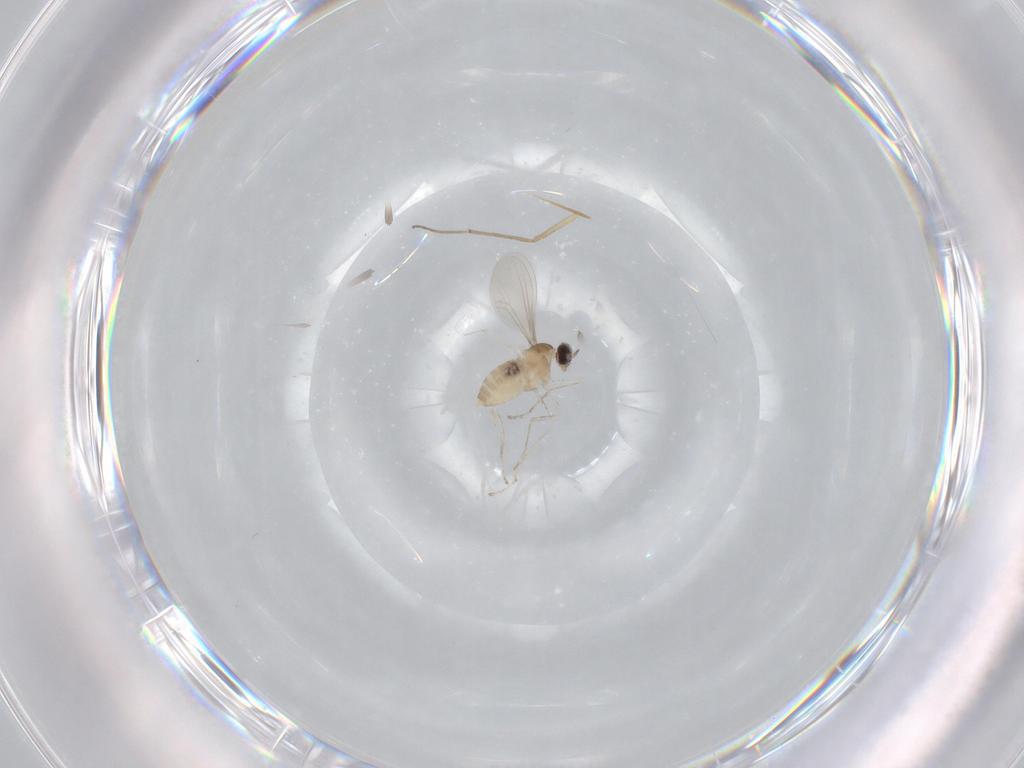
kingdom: Animalia
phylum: Arthropoda
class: Insecta
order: Diptera
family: Cecidomyiidae
